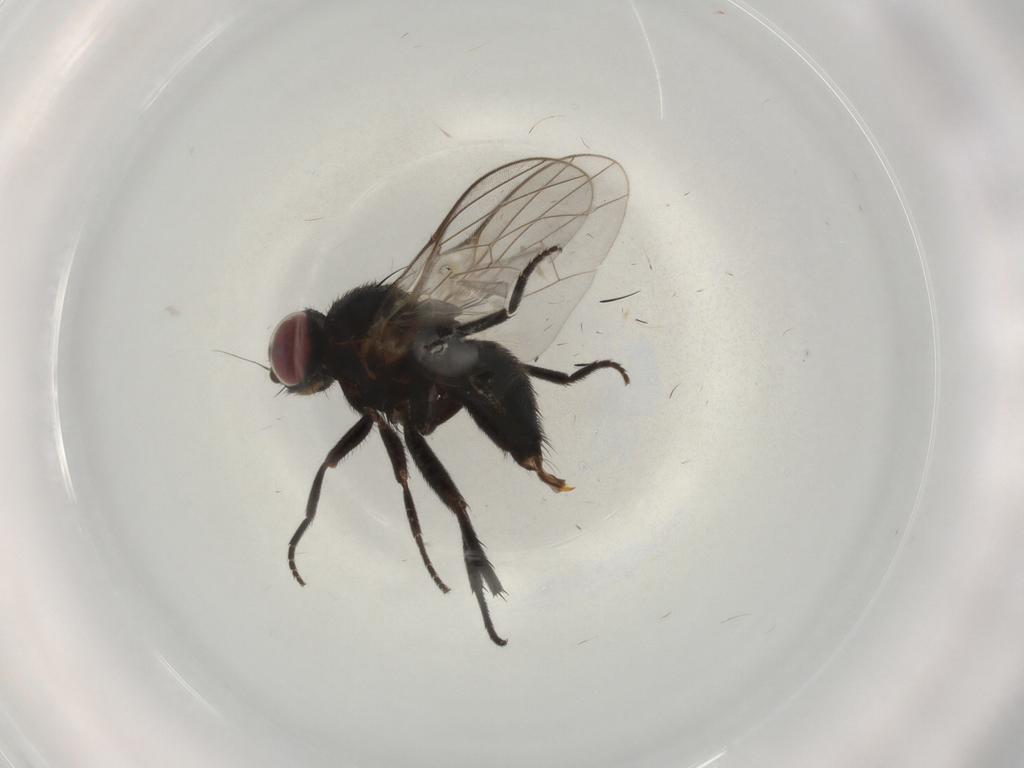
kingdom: Animalia
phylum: Arthropoda
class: Insecta
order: Diptera
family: Agromyzidae
